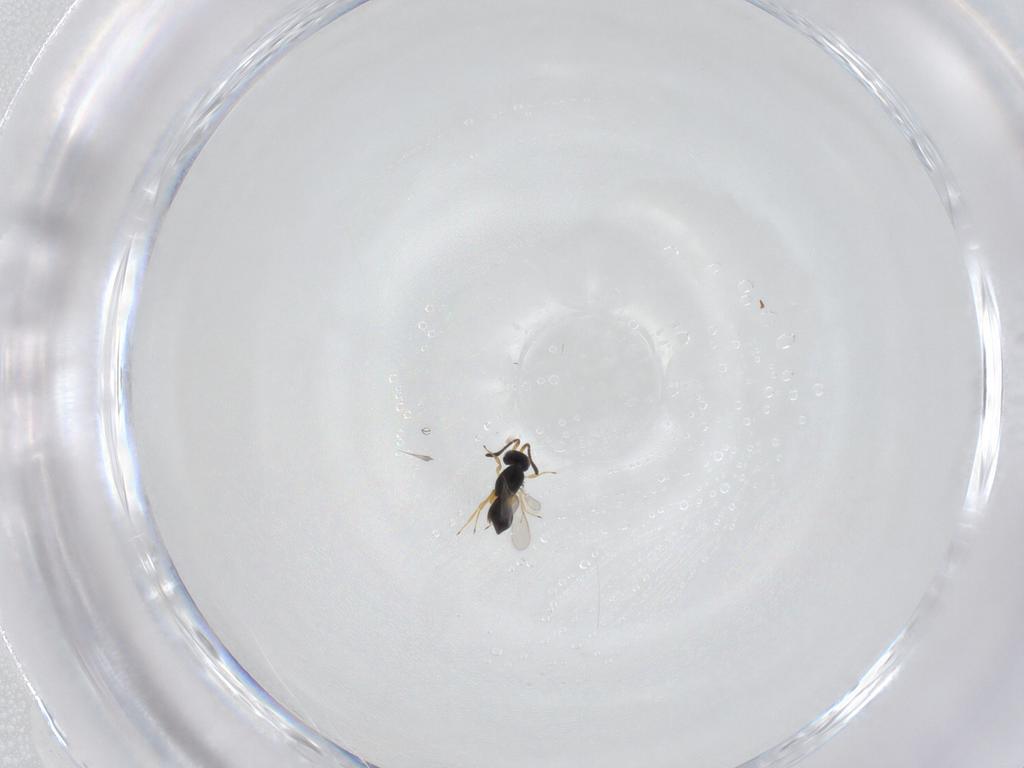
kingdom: Animalia
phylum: Arthropoda
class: Insecta
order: Hymenoptera
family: Scelionidae
